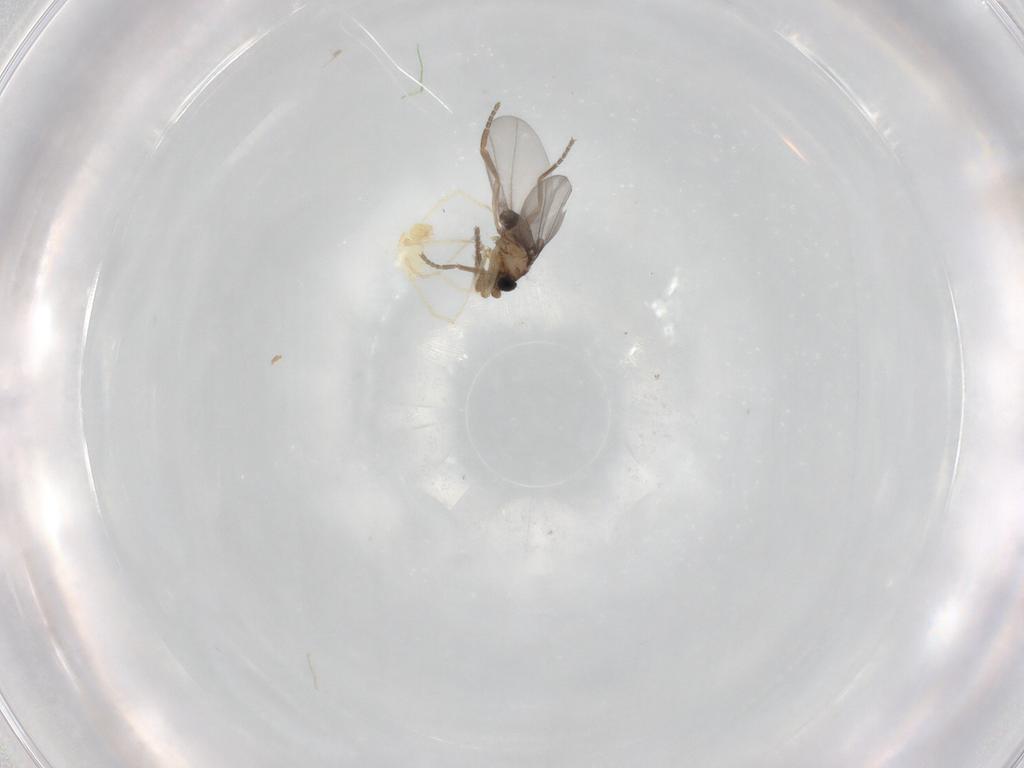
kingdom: Animalia
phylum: Arthropoda
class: Insecta
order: Diptera
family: Phoridae
